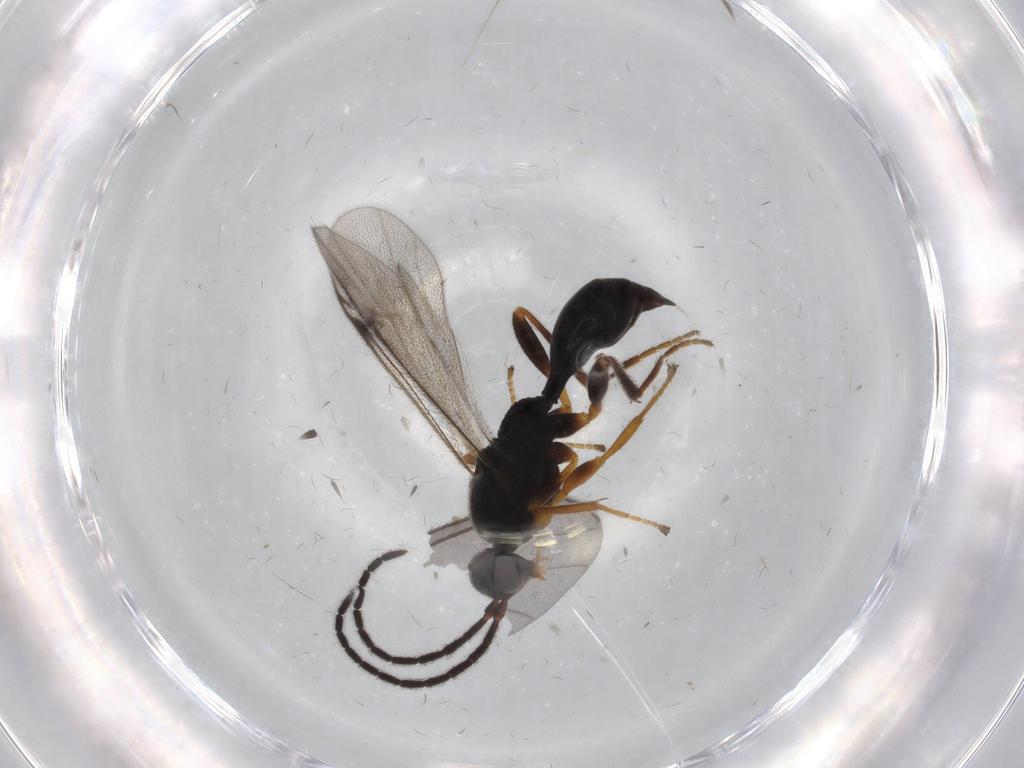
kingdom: Animalia
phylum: Arthropoda
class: Insecta
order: Hymenoptera
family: Proctotrupidae
